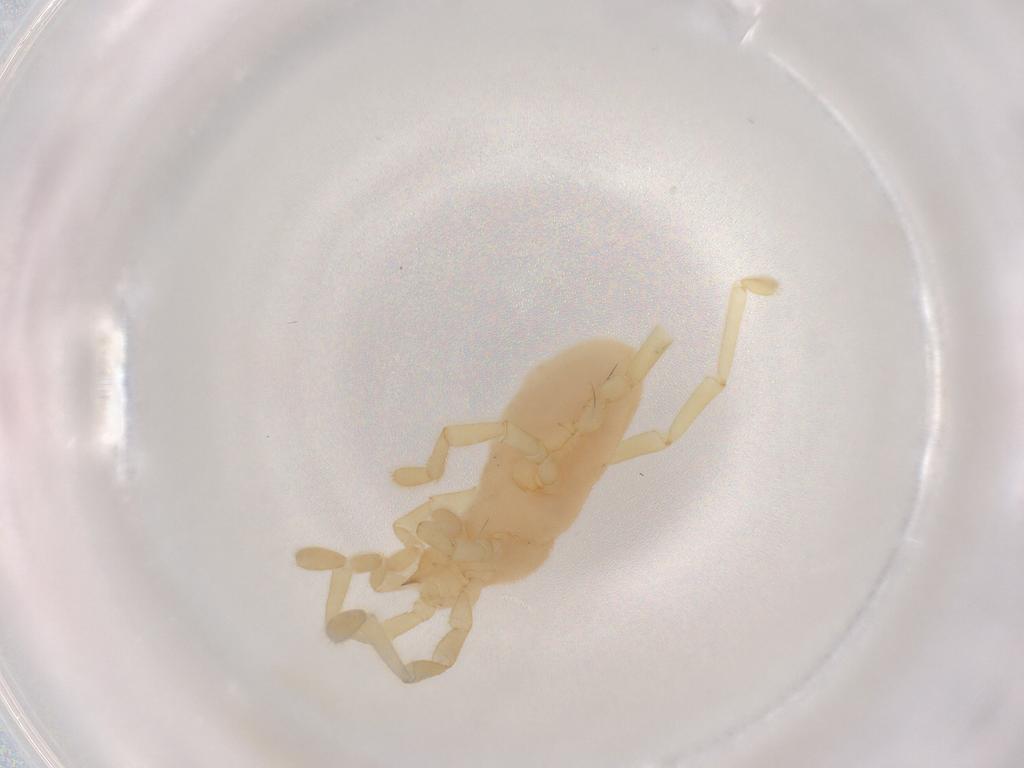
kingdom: Animalia
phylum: Arthropoda
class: Arachnida
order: Trombidiformes
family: Erythraeidae
